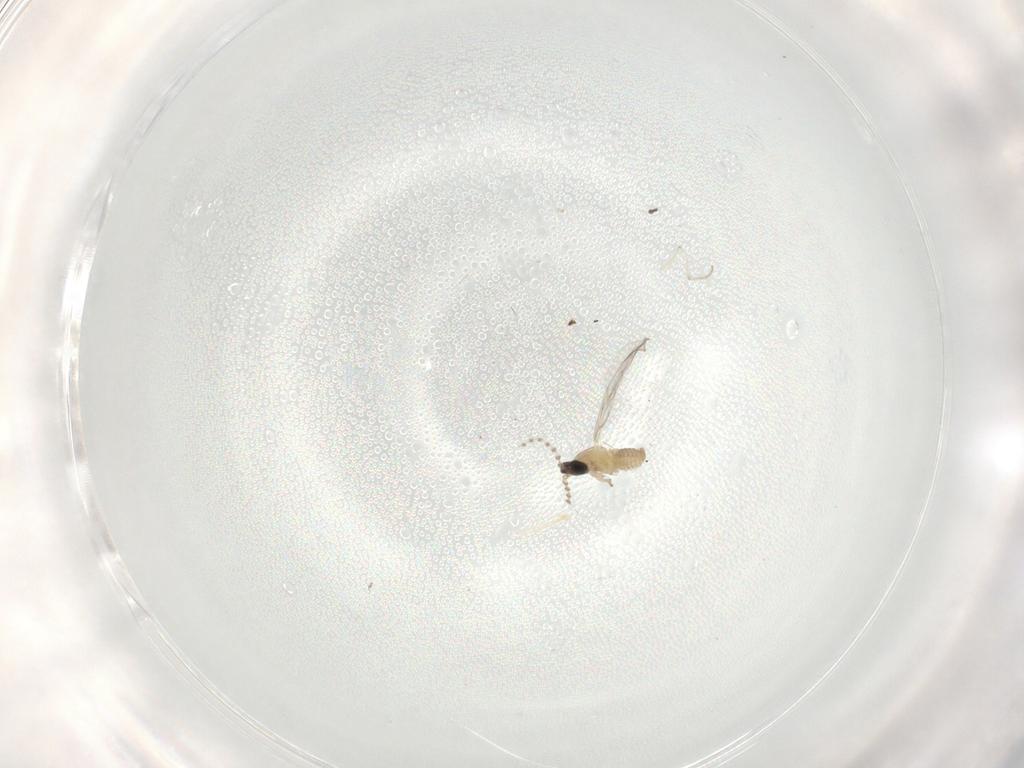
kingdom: Animalia
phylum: Arthropoda
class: Insecta
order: Diptera
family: Cecidomyiidae
